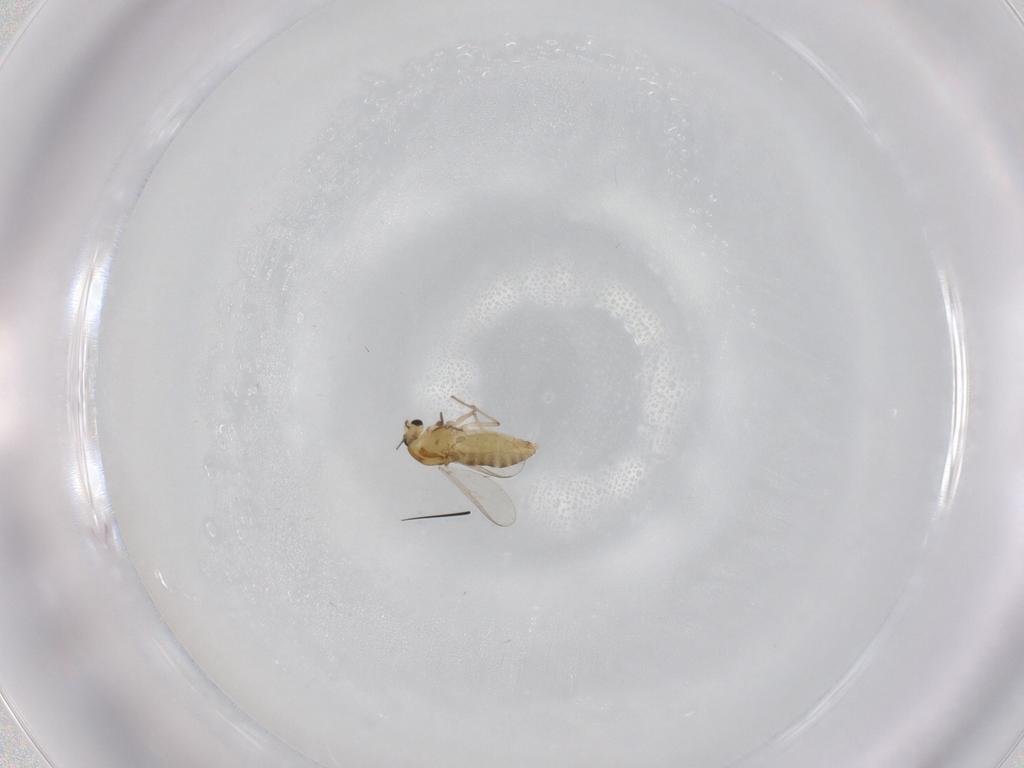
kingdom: Animalia
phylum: Arthropoda
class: Insecta
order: Diptera
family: Chironomidae
